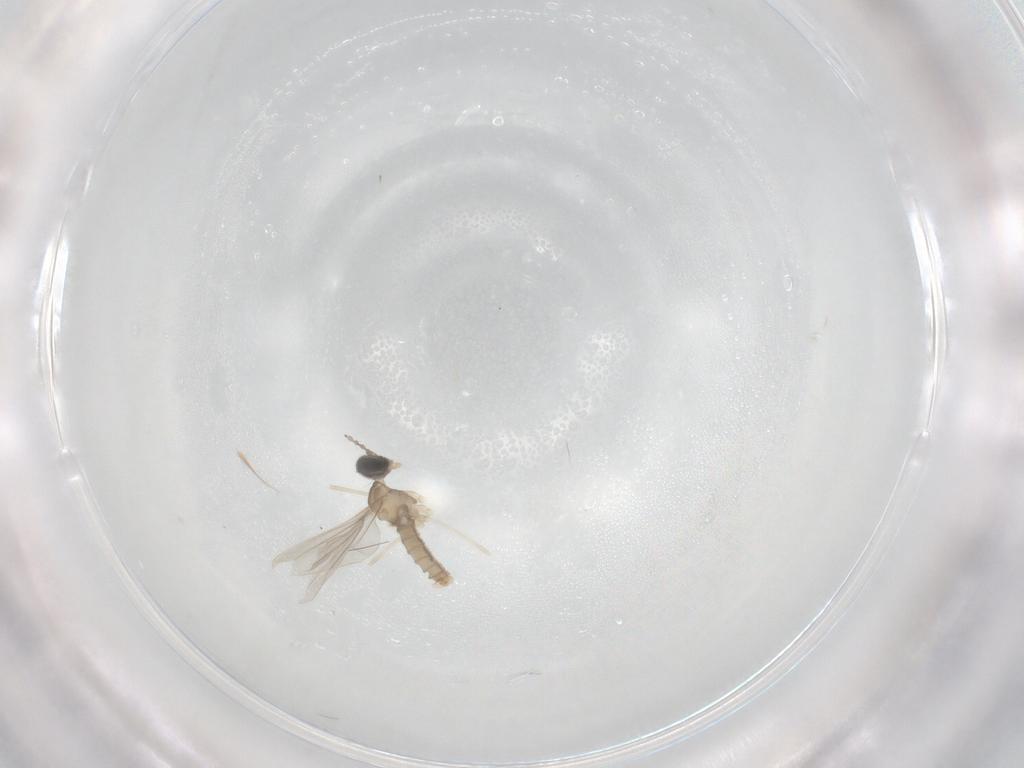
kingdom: Animalia
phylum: Arthropoda
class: Insecta
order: Diptera
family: Cecidomyiidae
